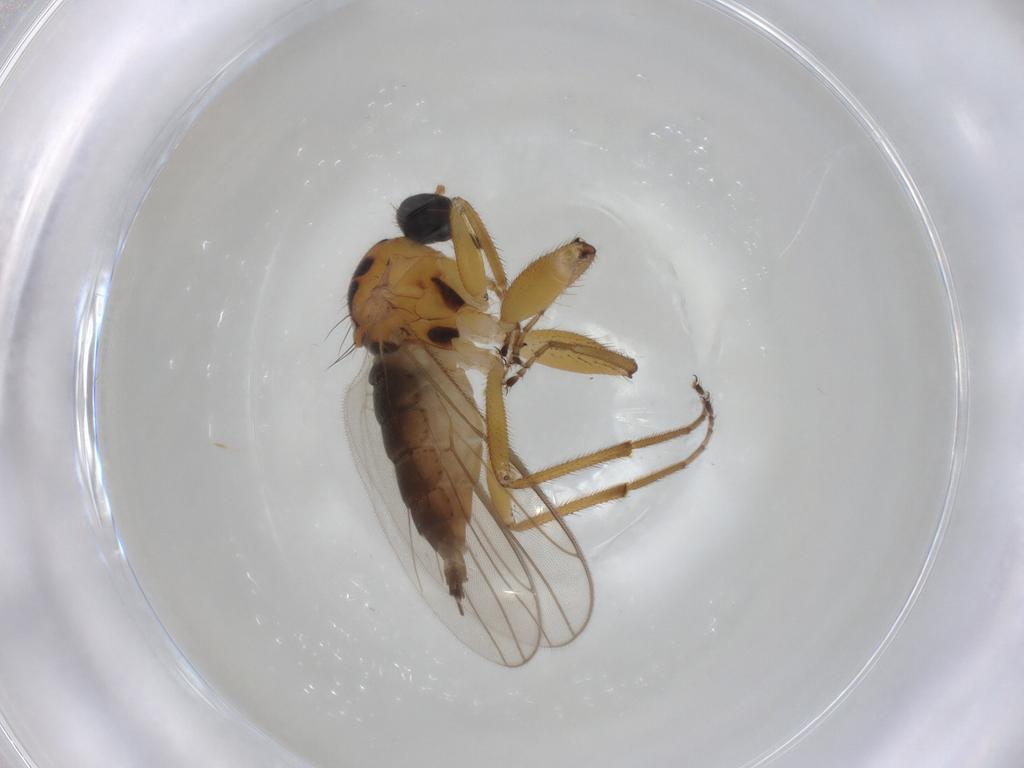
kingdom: Animalia
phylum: Arthropoda
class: Insecta
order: Diptera
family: Hybotidae
